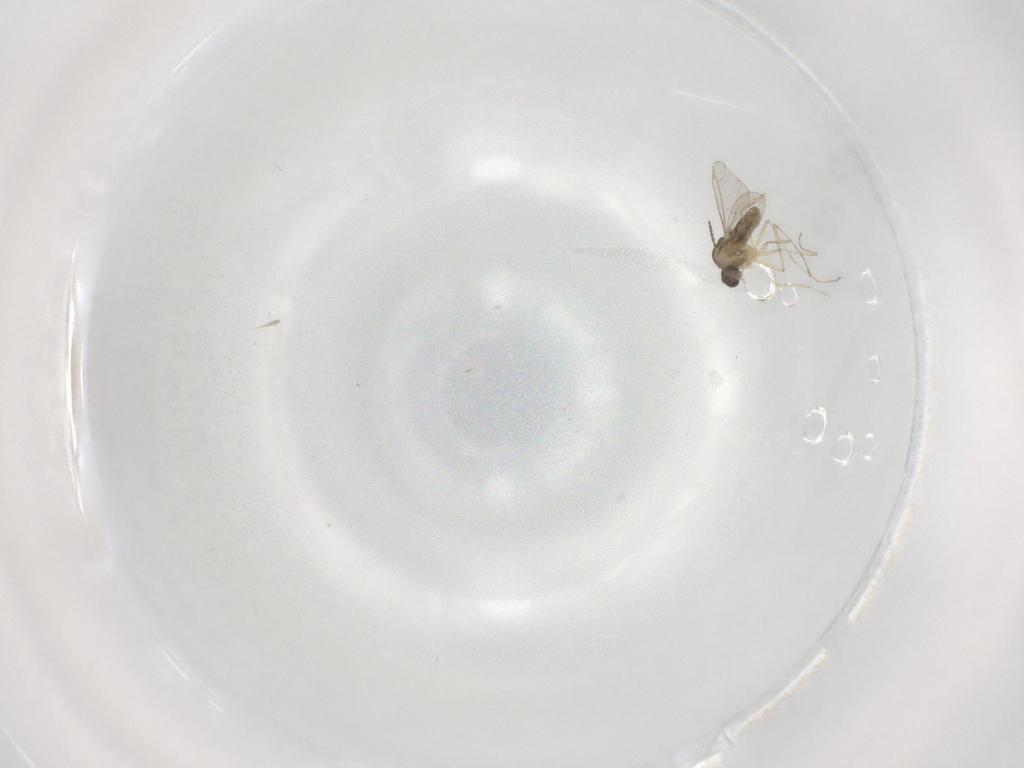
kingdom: Animalia
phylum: Arthropoda
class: Insecta
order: Diptera
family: Cecidomyiidae
